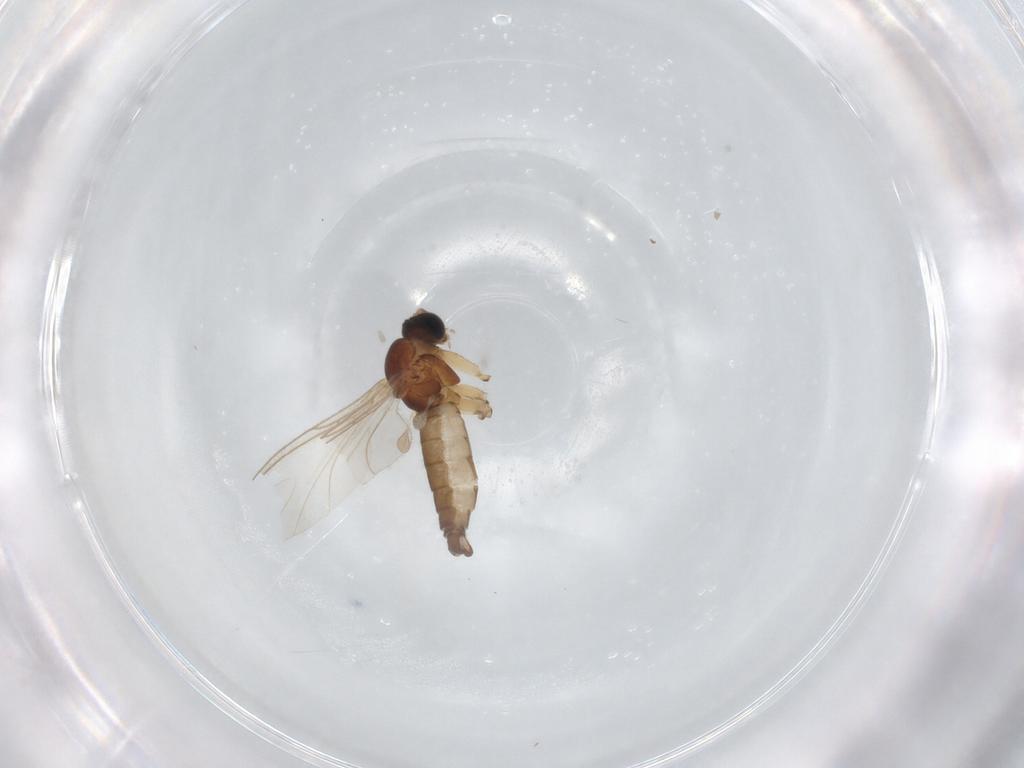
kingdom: Animalia
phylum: Arthropoda
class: Insecta
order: Diptera
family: Sciaridae
